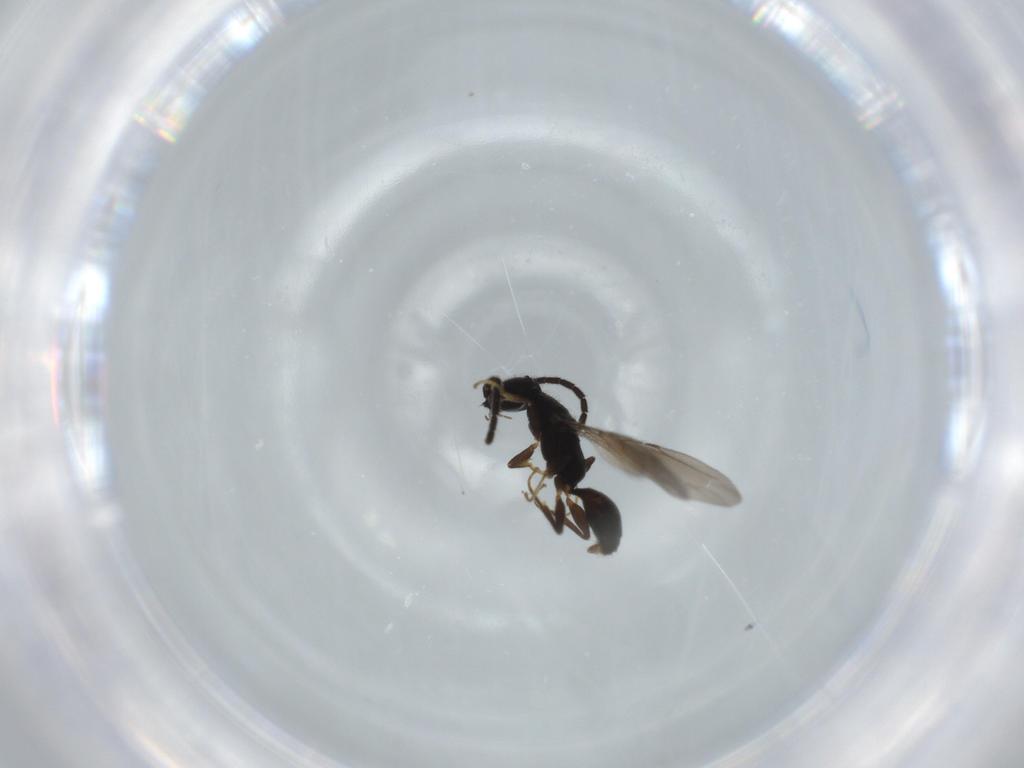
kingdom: Animalia
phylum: Arthropoda
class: Insecta
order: Hymenoptera
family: Bethylidae
